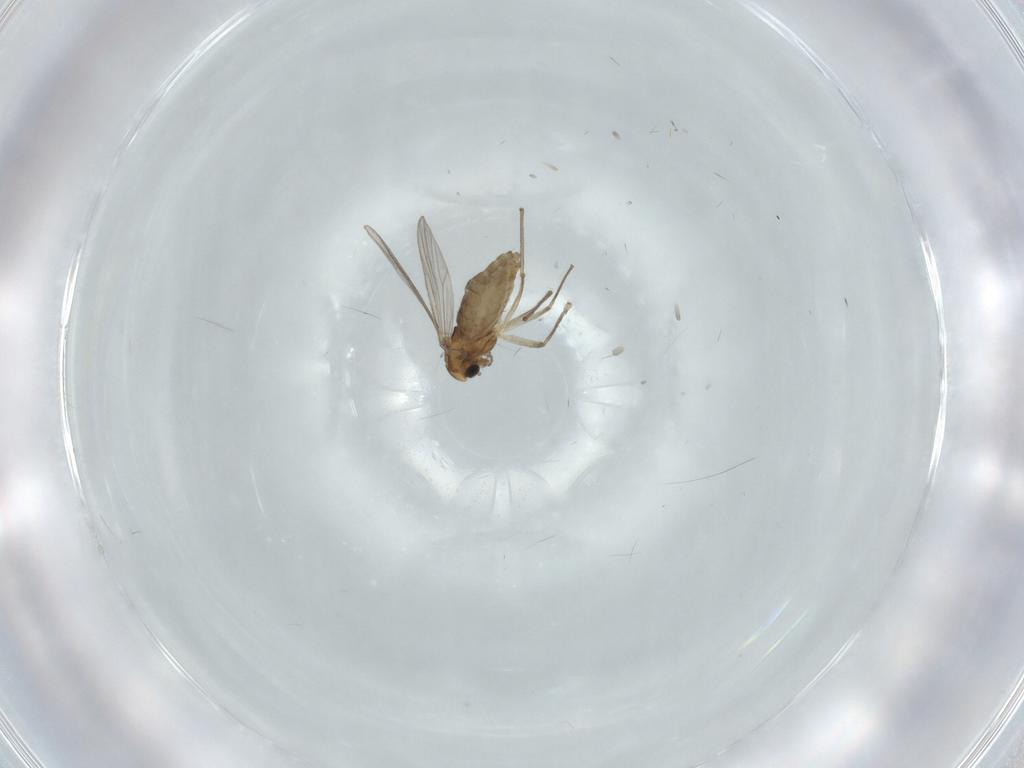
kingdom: Animalia
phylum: Arthropoda
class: Insecta
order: Diptera
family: Chironomidae
